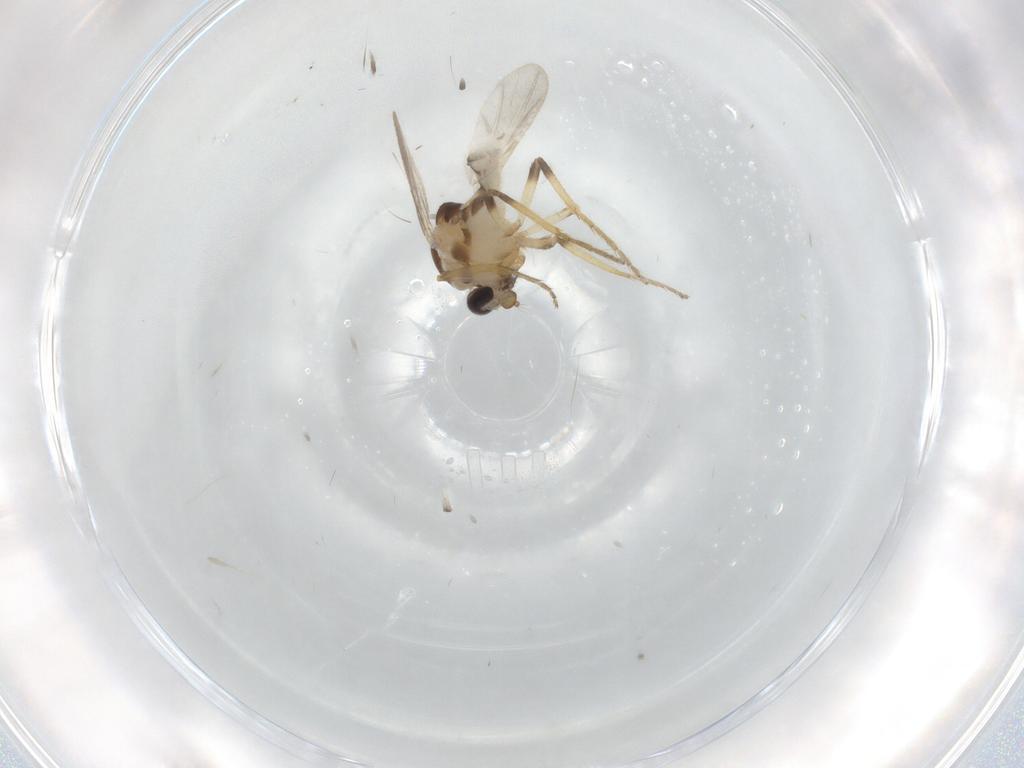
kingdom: Animalia
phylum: Arthropoda
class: Insecta
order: Diptera
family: Ceratopogonidae
